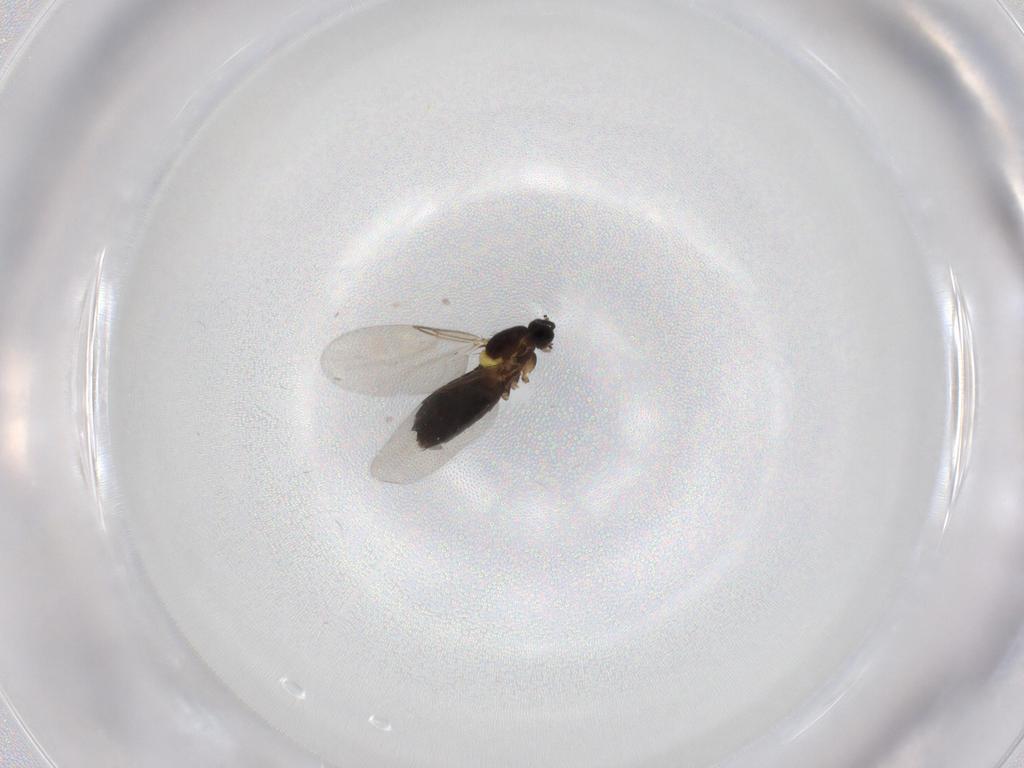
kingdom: Animalia
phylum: Arthropoda
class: Insecta
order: Diptera
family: Scatopsidae
